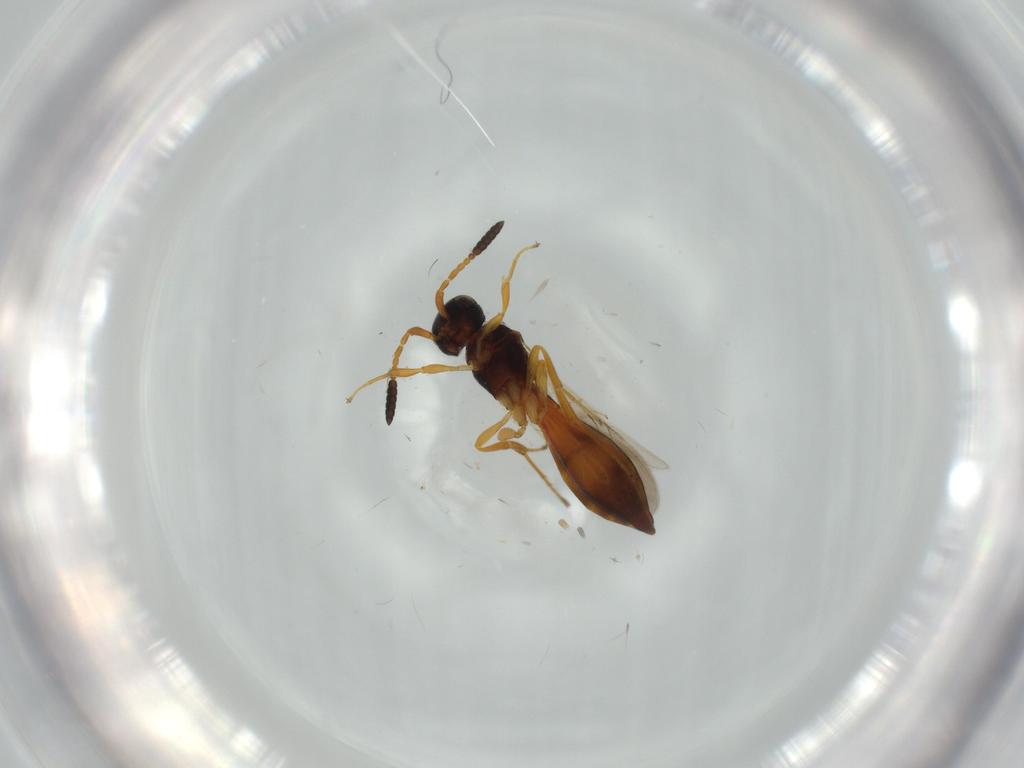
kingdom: Animalia
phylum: Arthropoda
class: Insecta
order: Hymenoptera
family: Scelionidae
